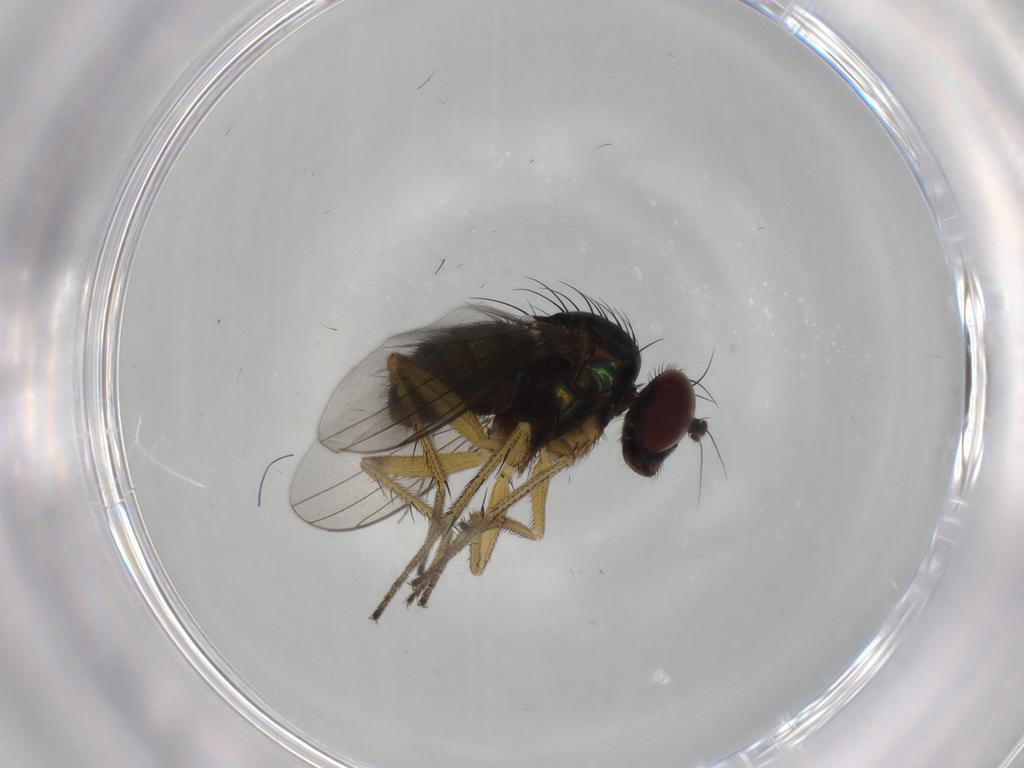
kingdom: Animalia
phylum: Arthropoda
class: Insecta
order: Diptera
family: Dolichopodidae
